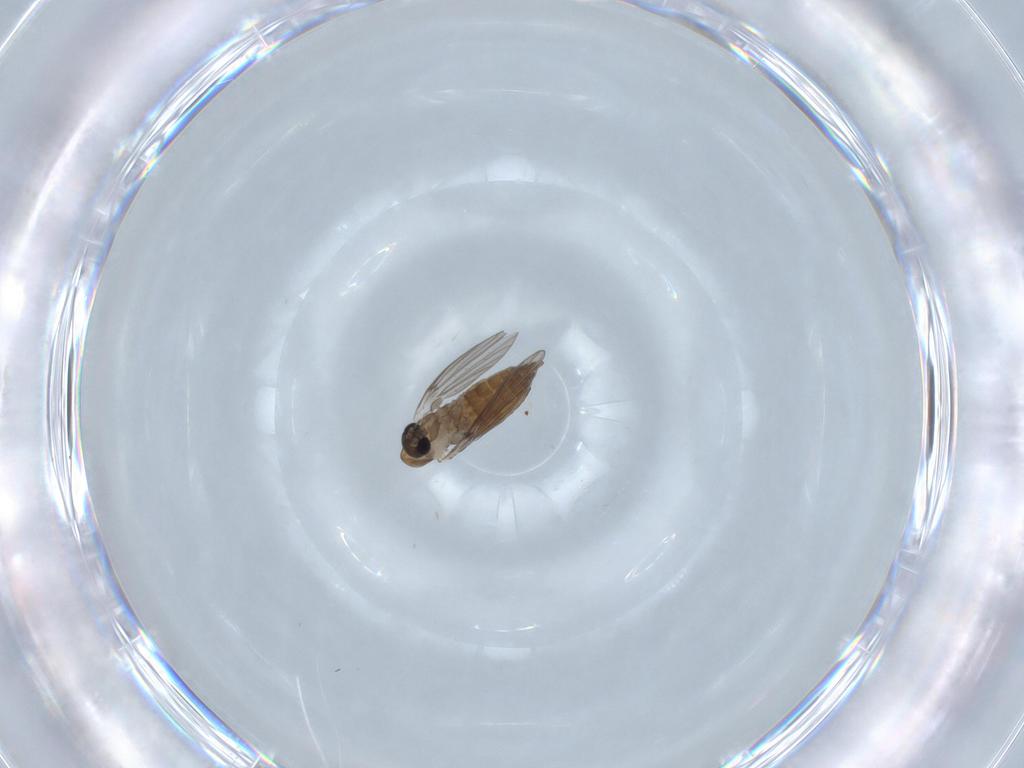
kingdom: Animalia
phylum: Arthropoda
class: Insecta
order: Diptera
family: Psychodidae
